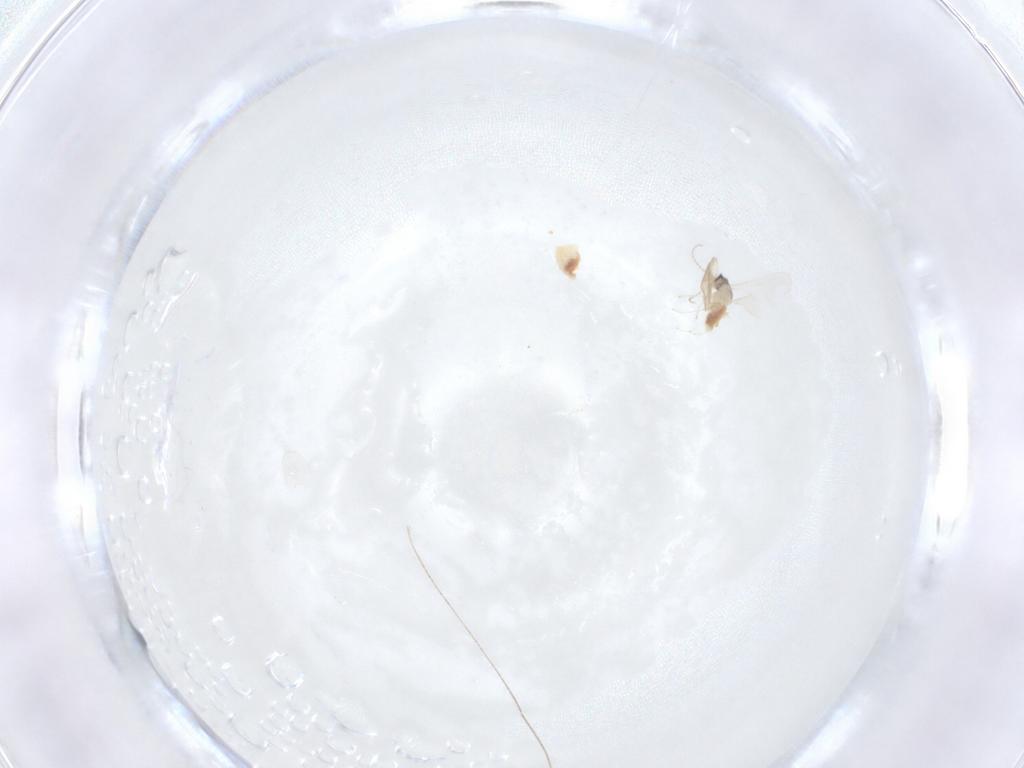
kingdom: Animalia
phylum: Arthropoda
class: Insecta
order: Diptera
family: Cecidomyiidae
